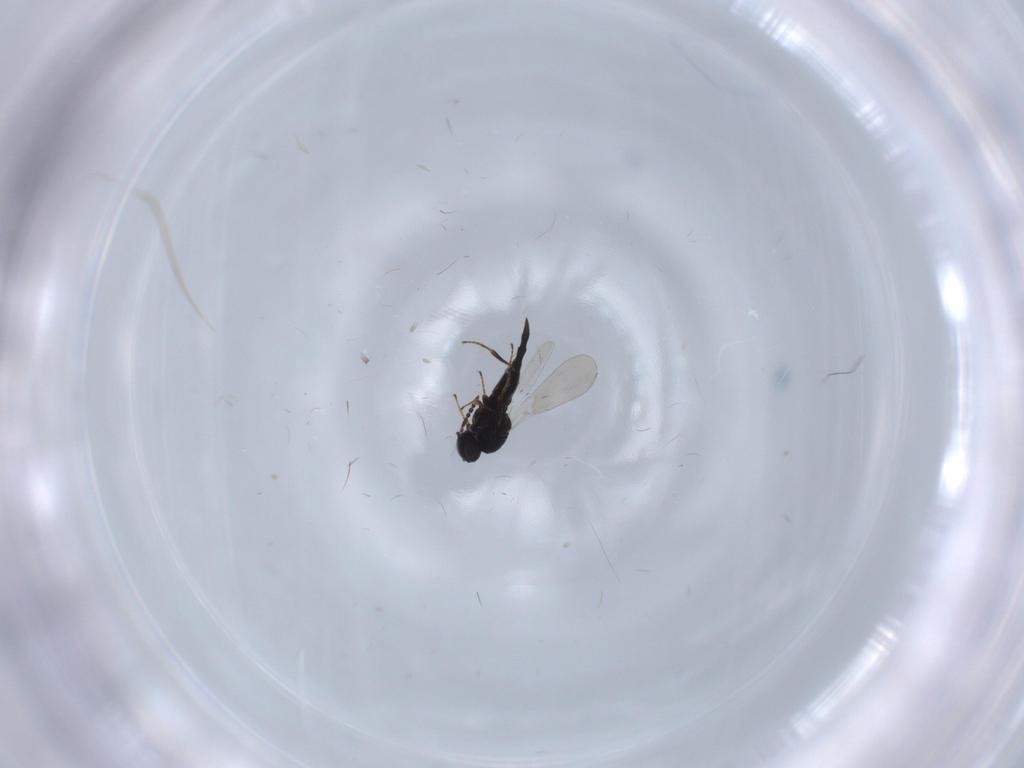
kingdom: Animalia
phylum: Arthropoda
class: Insecta
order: Hymenoptera
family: Platygastridae
